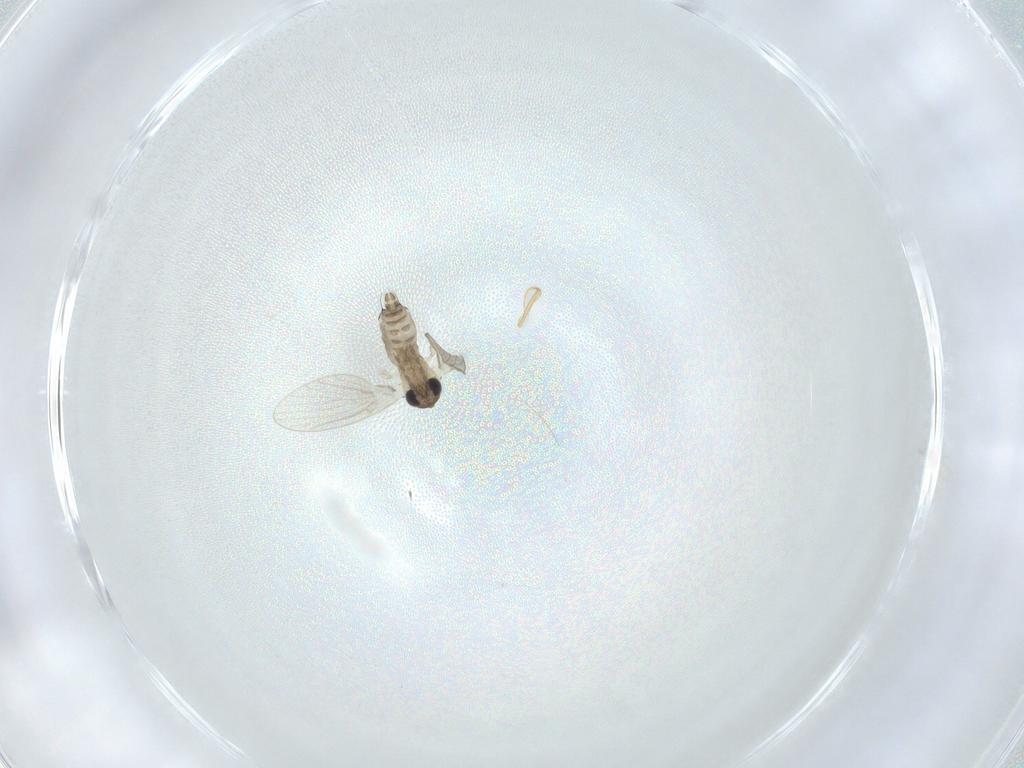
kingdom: Animalia
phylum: Arthropoda
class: Insecta
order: Diptera
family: Psychodidae
